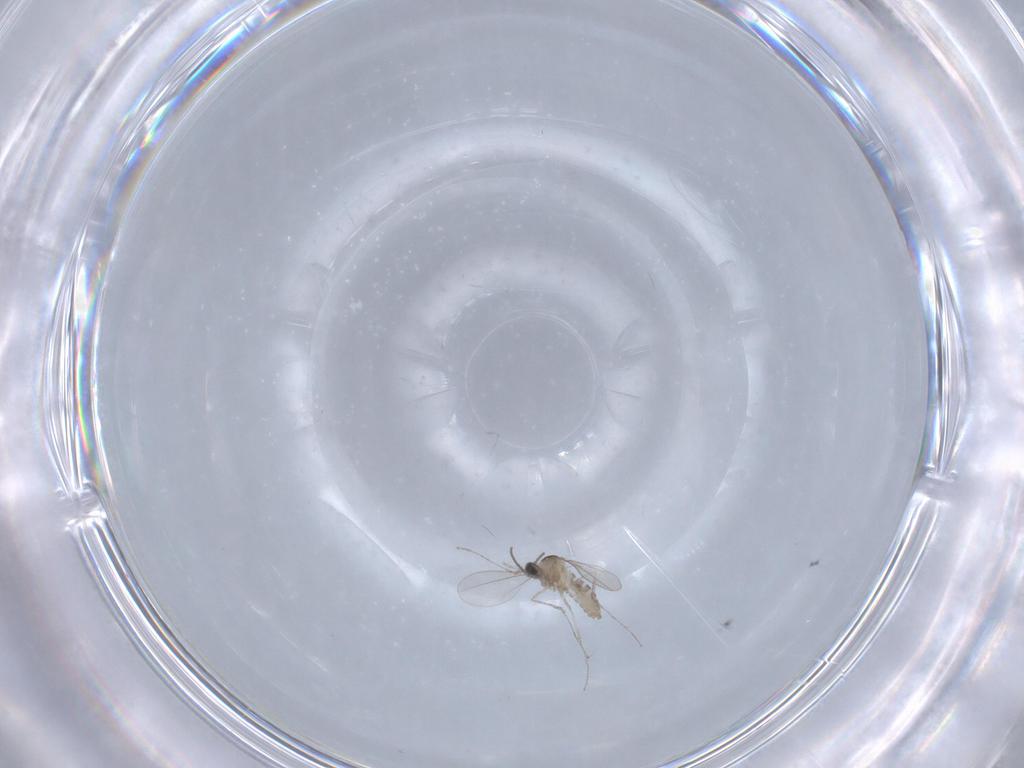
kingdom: Animalia
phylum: Arthropoda
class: Insecta
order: Diptera
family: Cecidomyiidae
